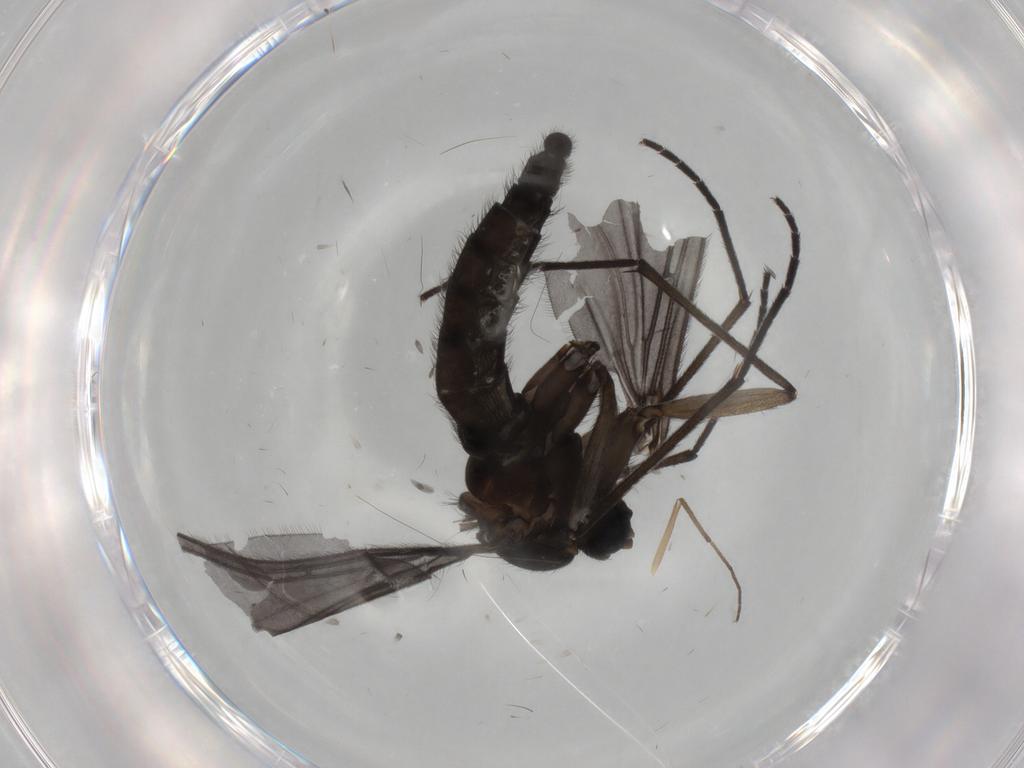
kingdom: Animalia
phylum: Arthropoda
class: Insecta
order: Diptera
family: Sciaridae
